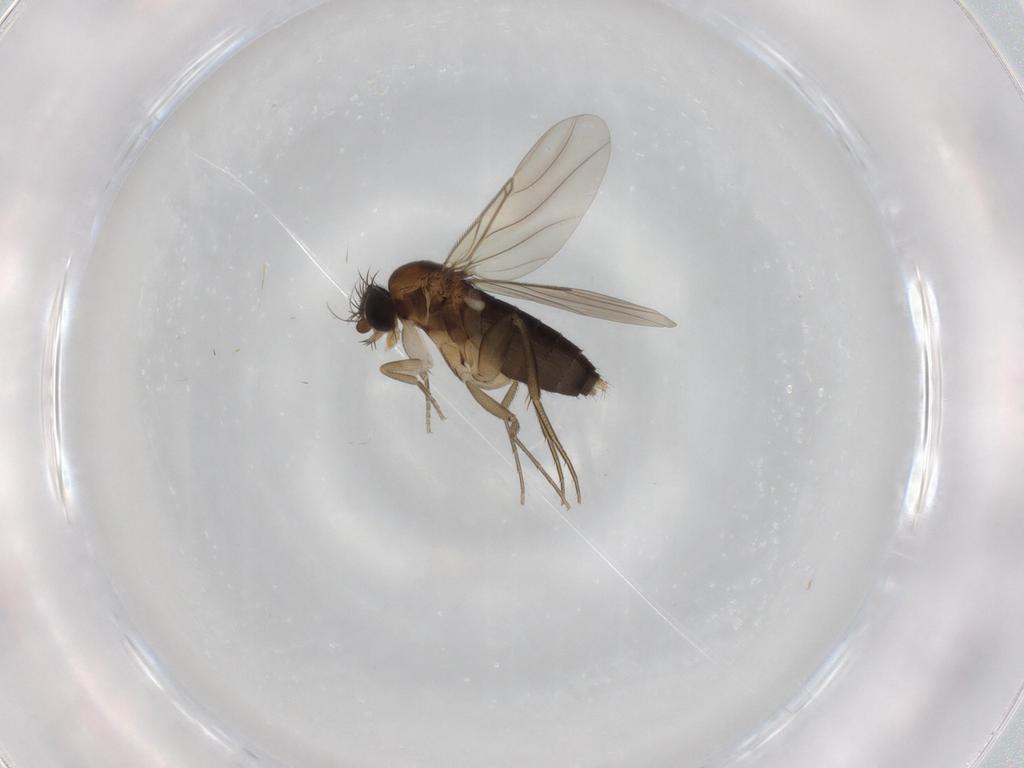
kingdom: Animalia
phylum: Arthropoda
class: Insecta
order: Diptera
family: Phoridae
